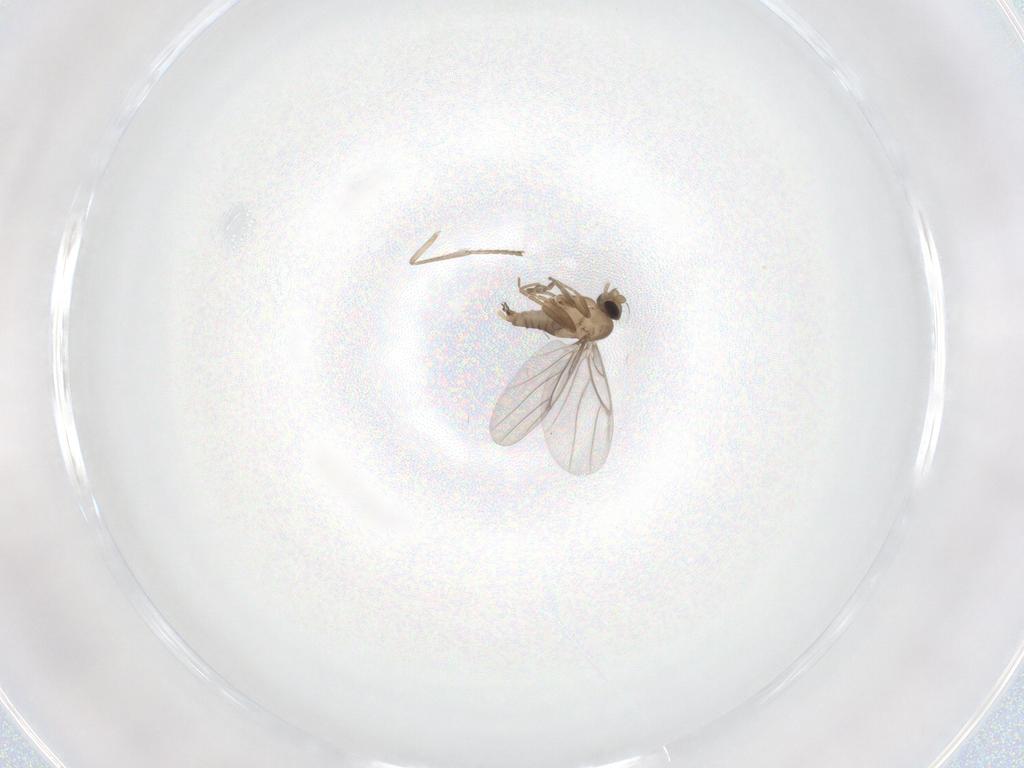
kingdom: Animalia
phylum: Arthropoda
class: Insecta
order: Diptera
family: Psychodidae
